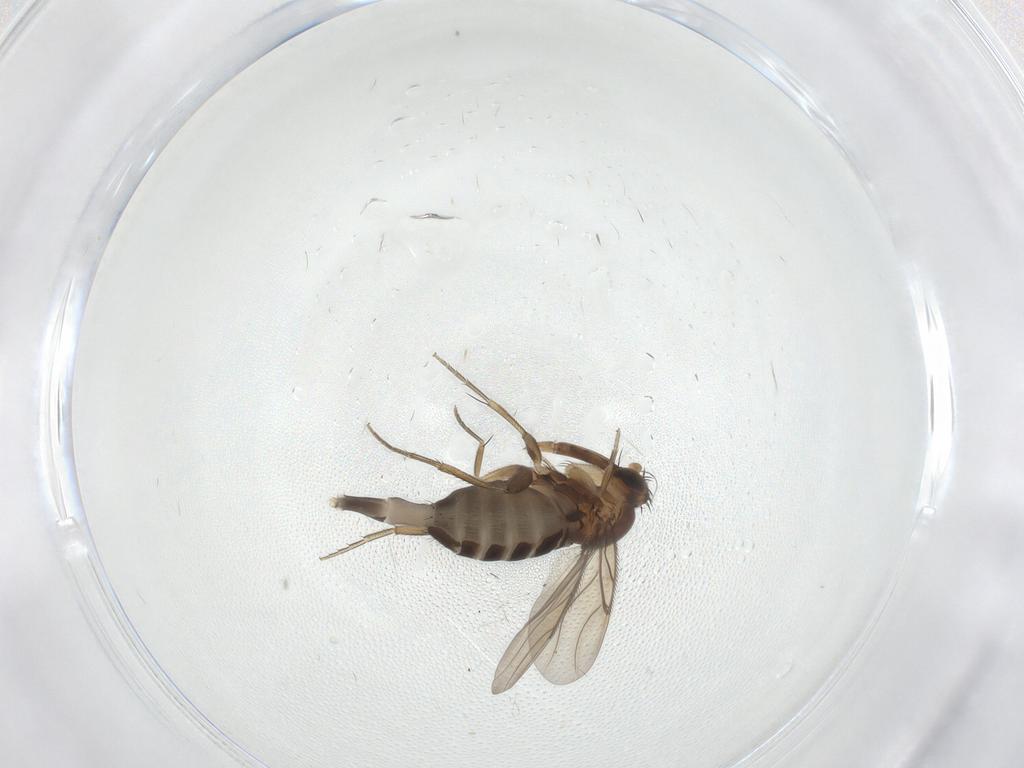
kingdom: Animalia
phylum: Arthropoda
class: Insecta
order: Diptera
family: Phoridae
